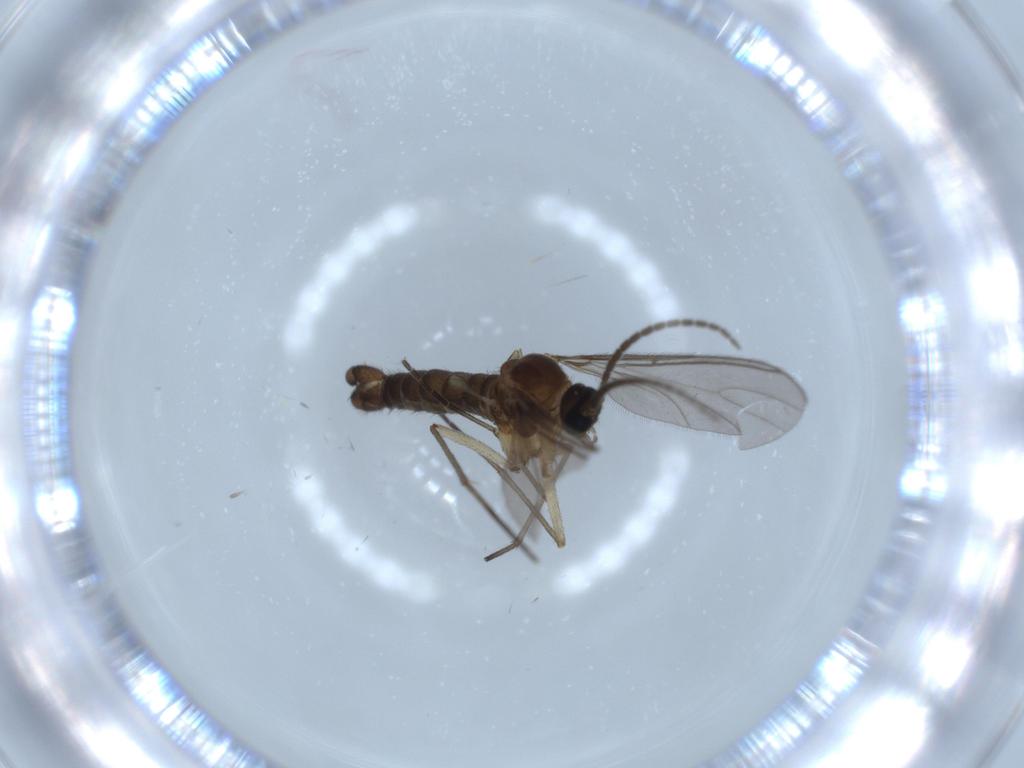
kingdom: Animalia
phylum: Arthropoda
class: Insecta
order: Diptera
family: Sciaridae
